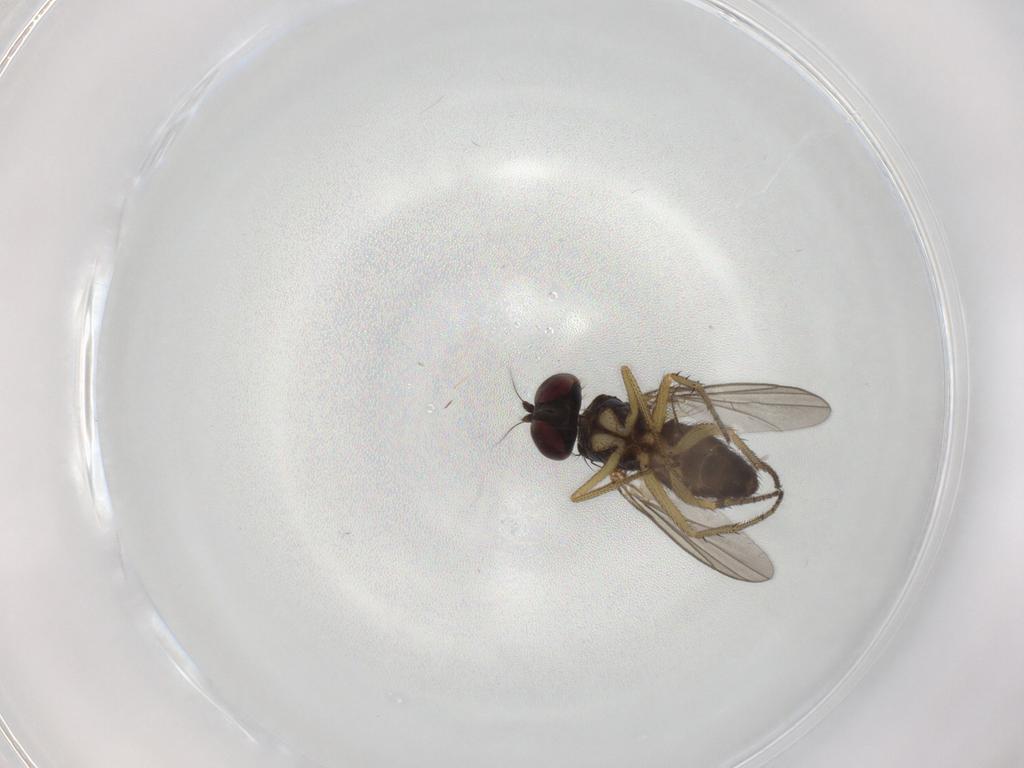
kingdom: Animalia
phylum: Arthropoda
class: Insecta
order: Diptera
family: Dolichopodidae
